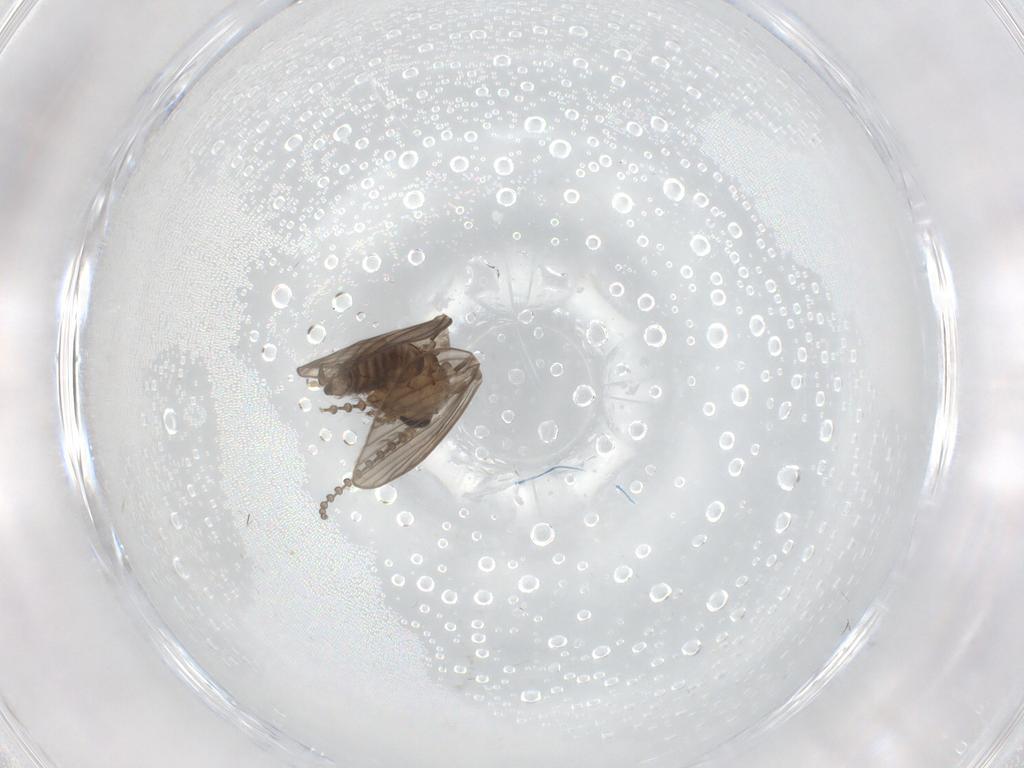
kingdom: Animalia
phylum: Arthropoda
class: Insecta
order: Diptera
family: Psychodidae
